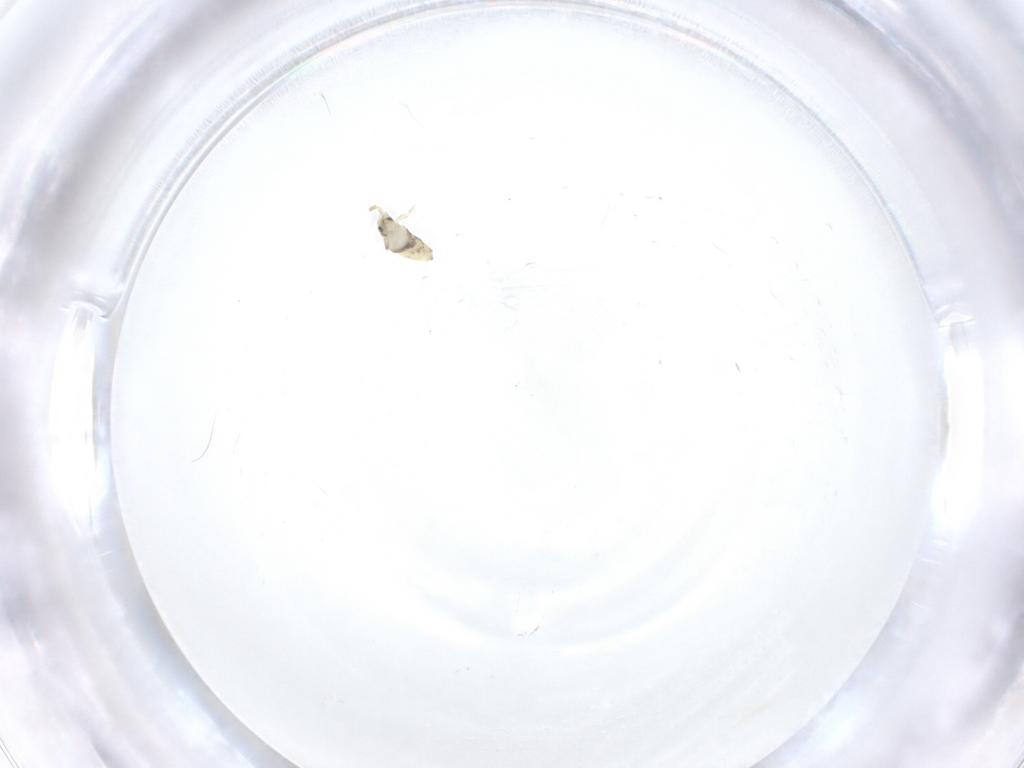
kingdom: Animalia
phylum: Arthropoda
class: Collembola
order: Entomobryomorpha
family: Entomobryidae
